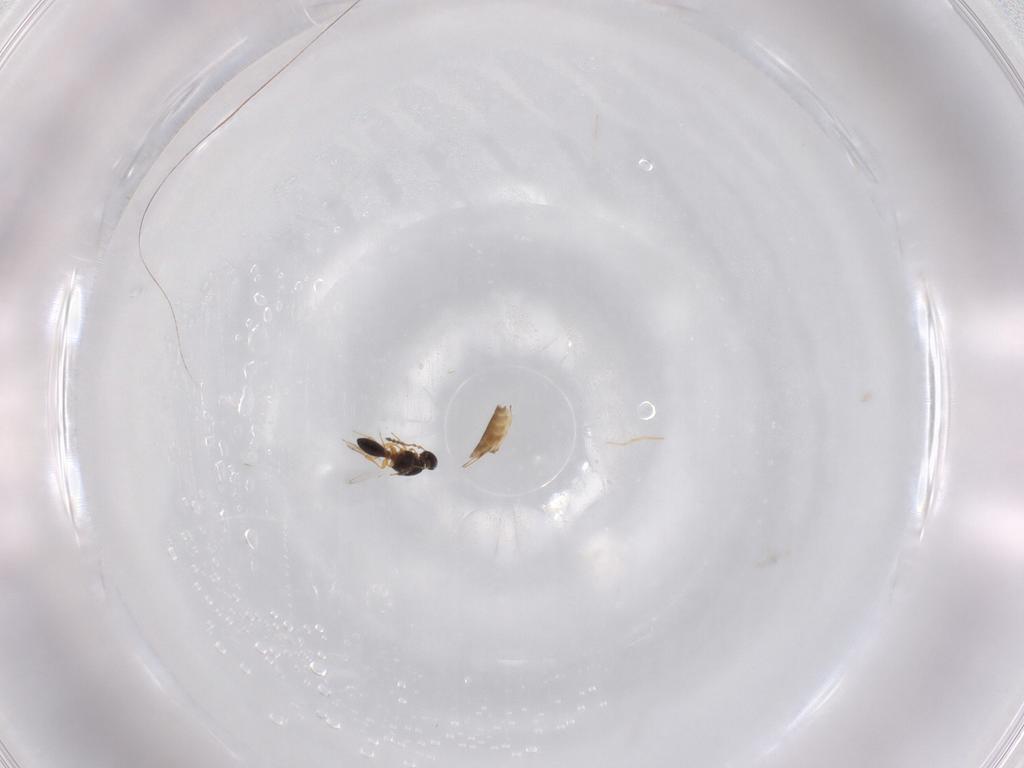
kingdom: Animalia
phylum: Arthropoda
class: Insecta
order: Hymenoptera
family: Platygastridae
